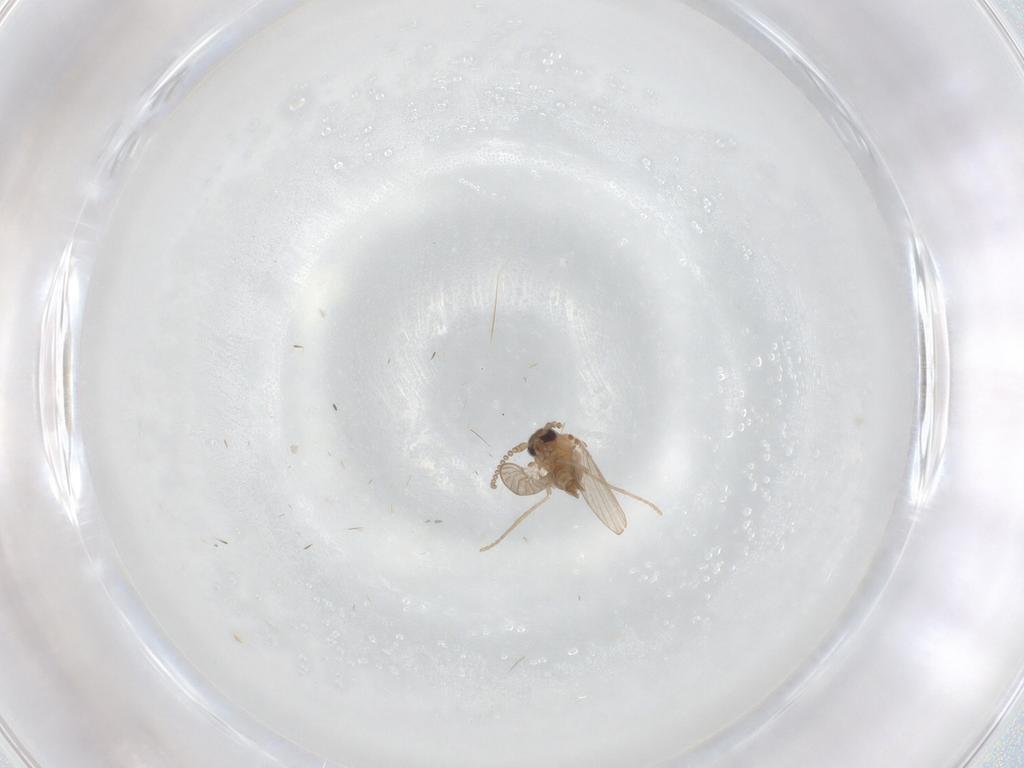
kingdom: Animalia
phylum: Arthropoda
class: Insecta
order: Diptera
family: Psychodidae
